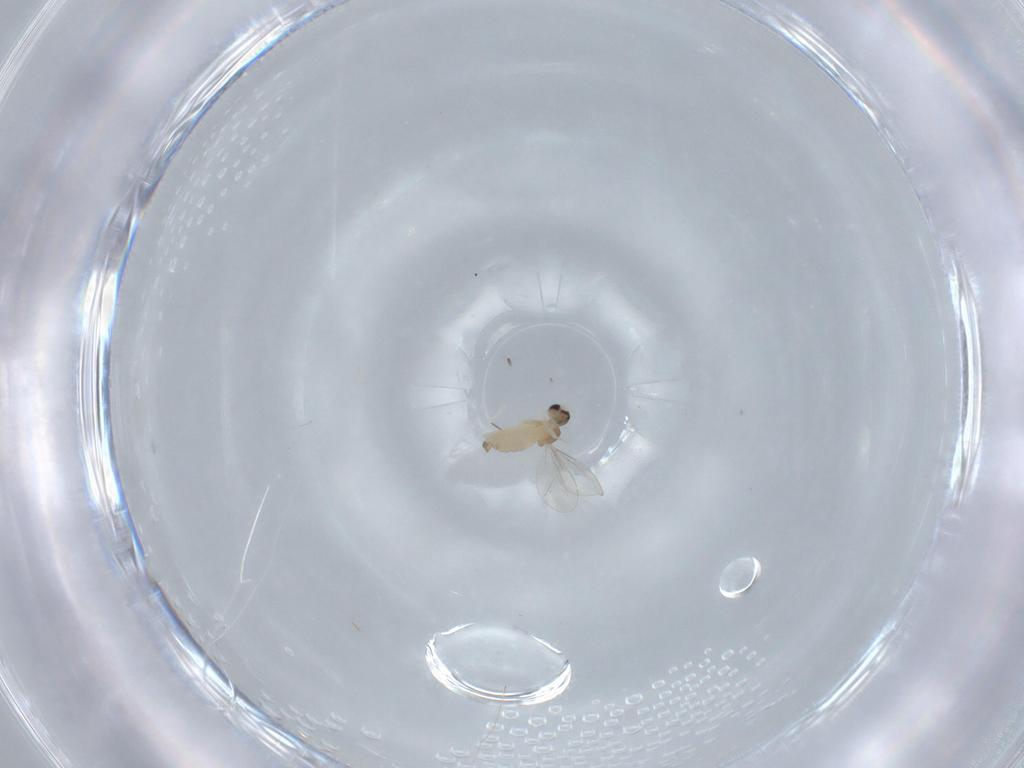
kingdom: Animalia
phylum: Arthropoda
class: Insecta
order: Diptera
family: Cecidomyiidae
